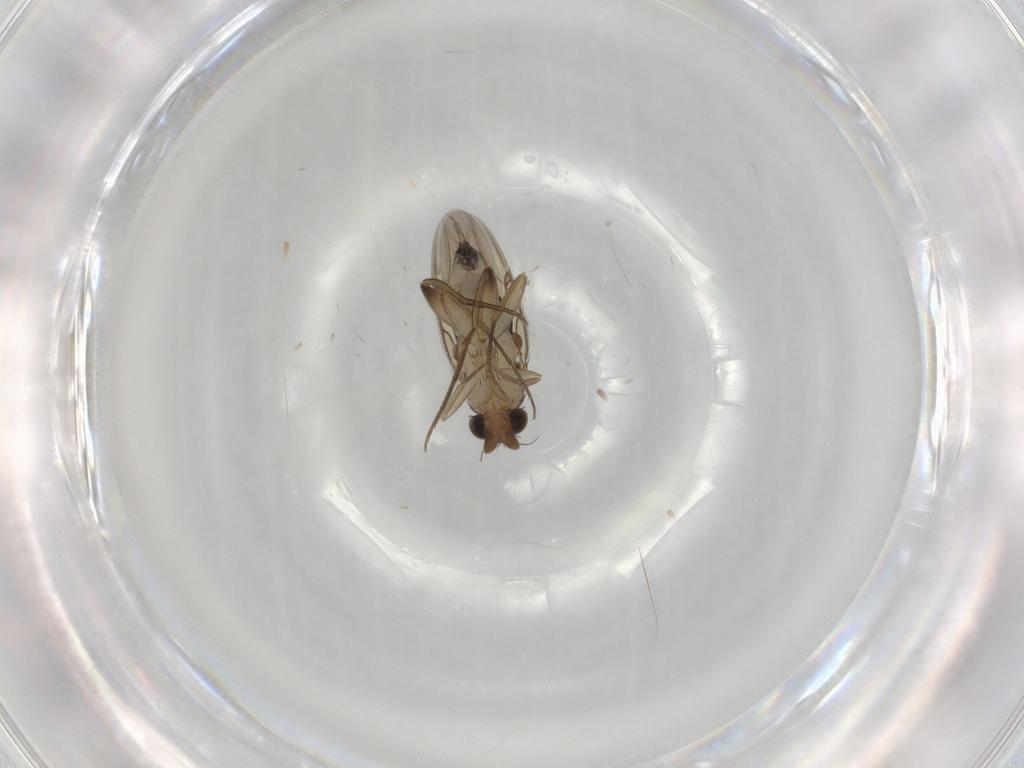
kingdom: Animalia
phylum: Arthropoda
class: Insecta
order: Diptera
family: Phoridae
